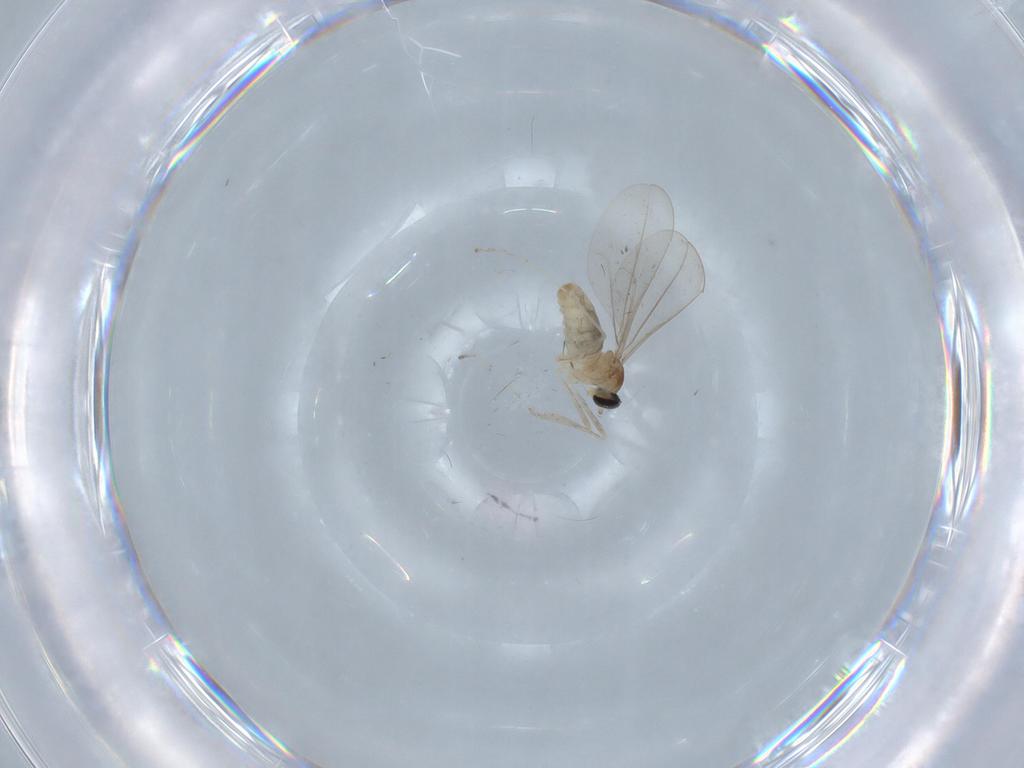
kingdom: Animalia
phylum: Arthropoda
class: Insecta
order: Diptera
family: Cecidomyiidae
